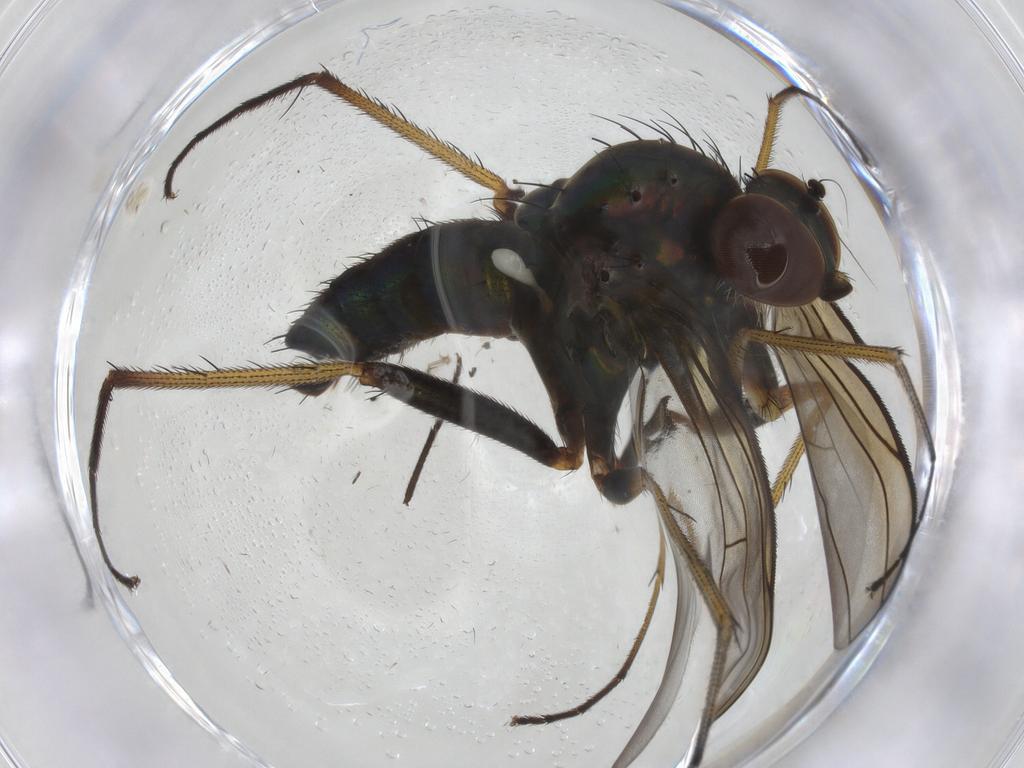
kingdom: Animalia
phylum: Arthropoda
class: Insecta
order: Diptera
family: Dolichopodidae
